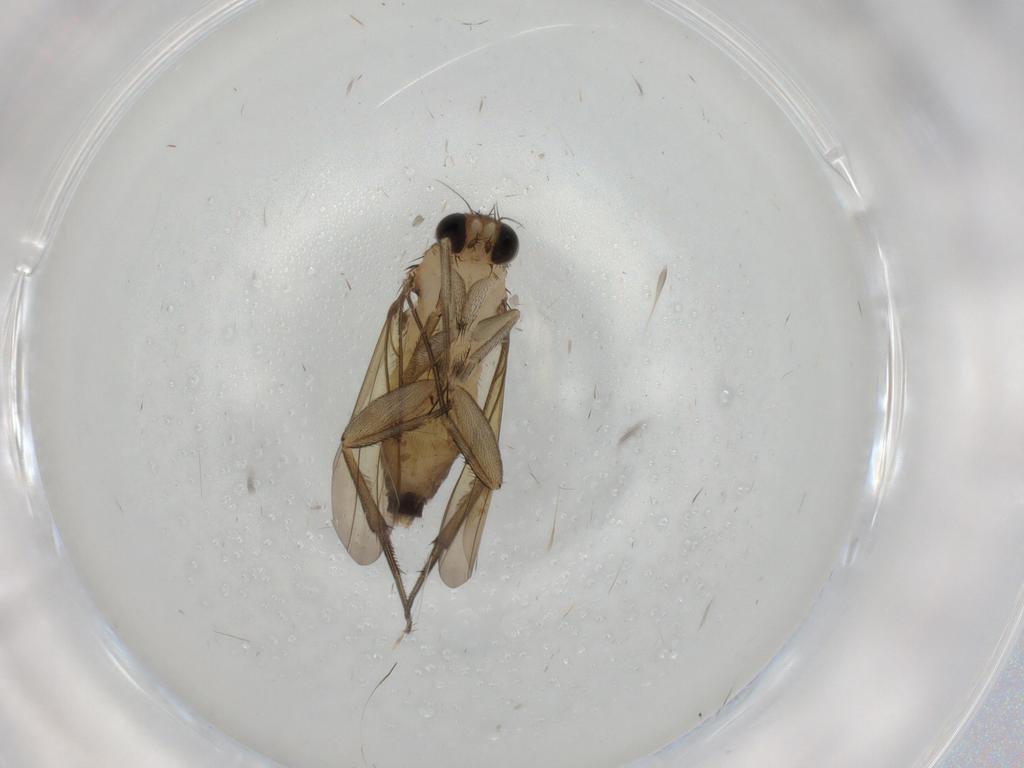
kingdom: Animalia
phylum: Arthropoda
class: Insecta
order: Diptera
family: Phoridae
